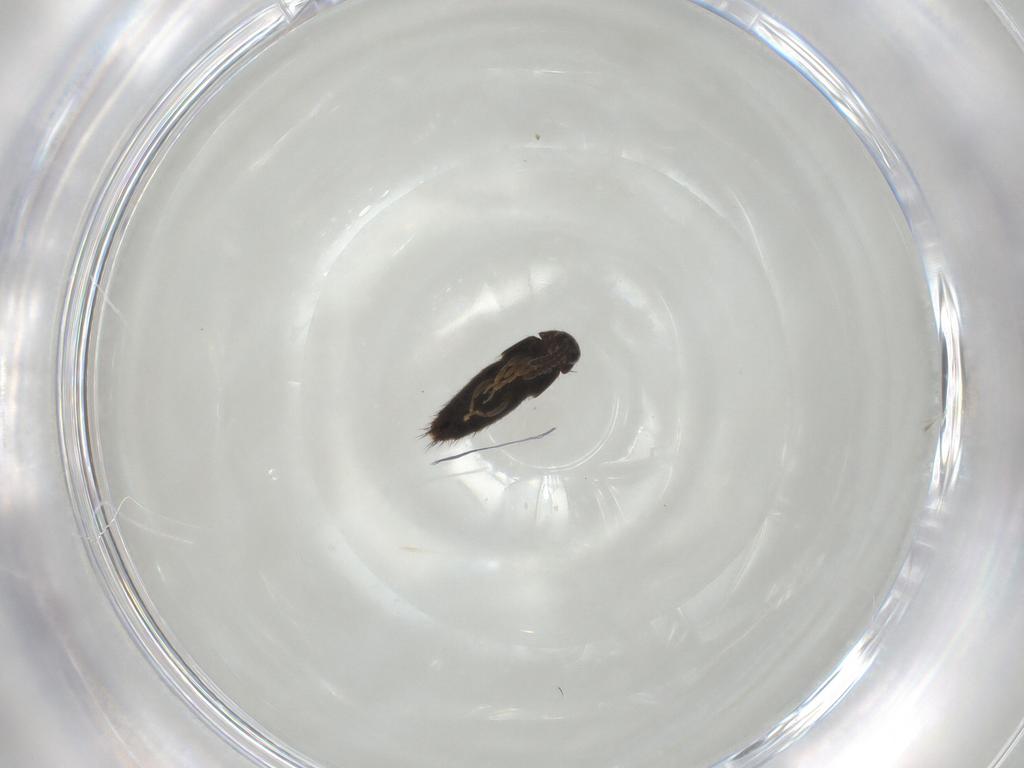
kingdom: Animalia
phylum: Arthropoda
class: Insecta
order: Coleoptera
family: Staphylinidae
